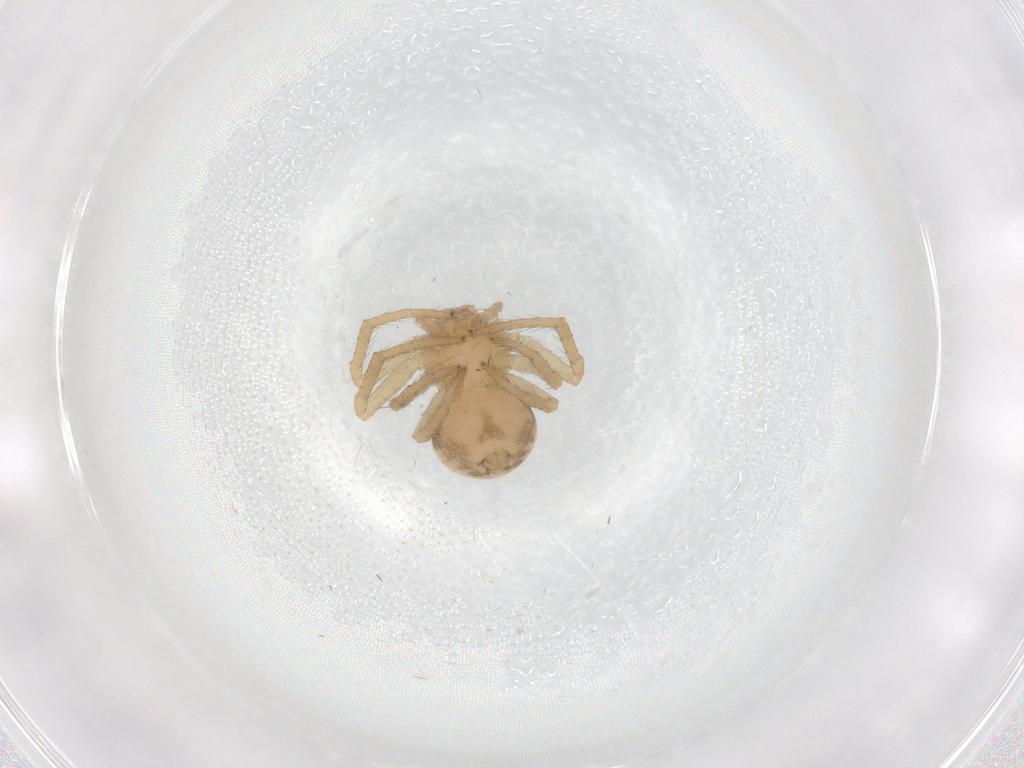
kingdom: Animalia
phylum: Arthropoda
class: Arachnida
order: Araneae
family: Thomisidae
